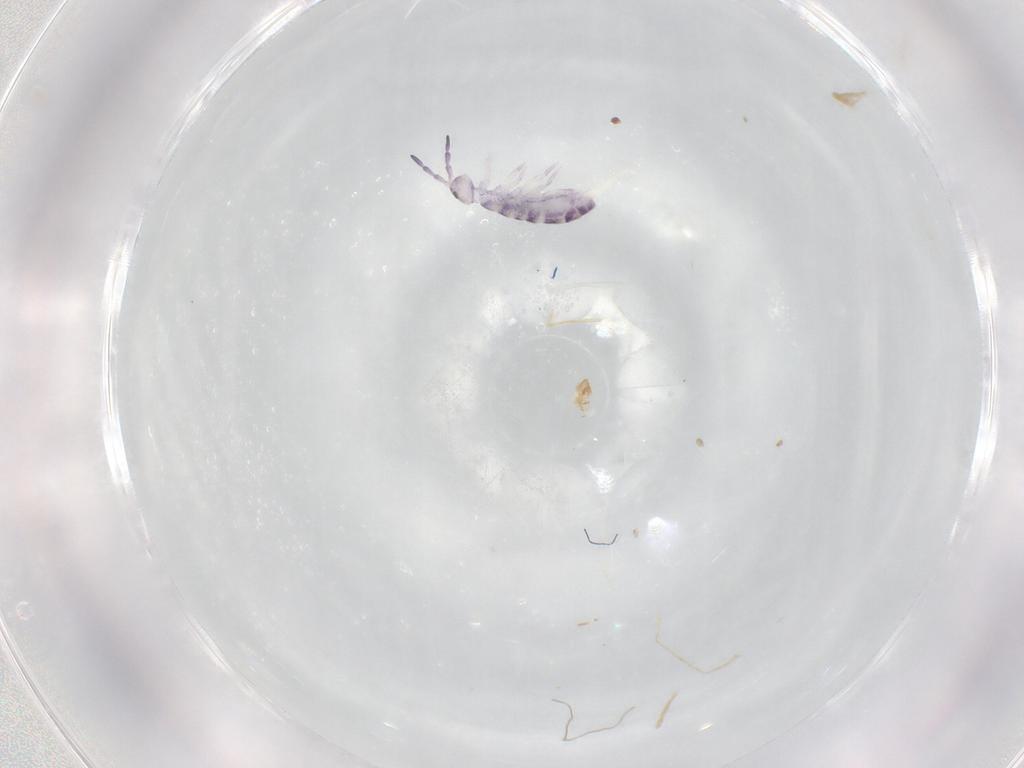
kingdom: Animalia
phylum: Arthropoda
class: Collembola
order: Entomobryomorpha
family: Isotomidae
